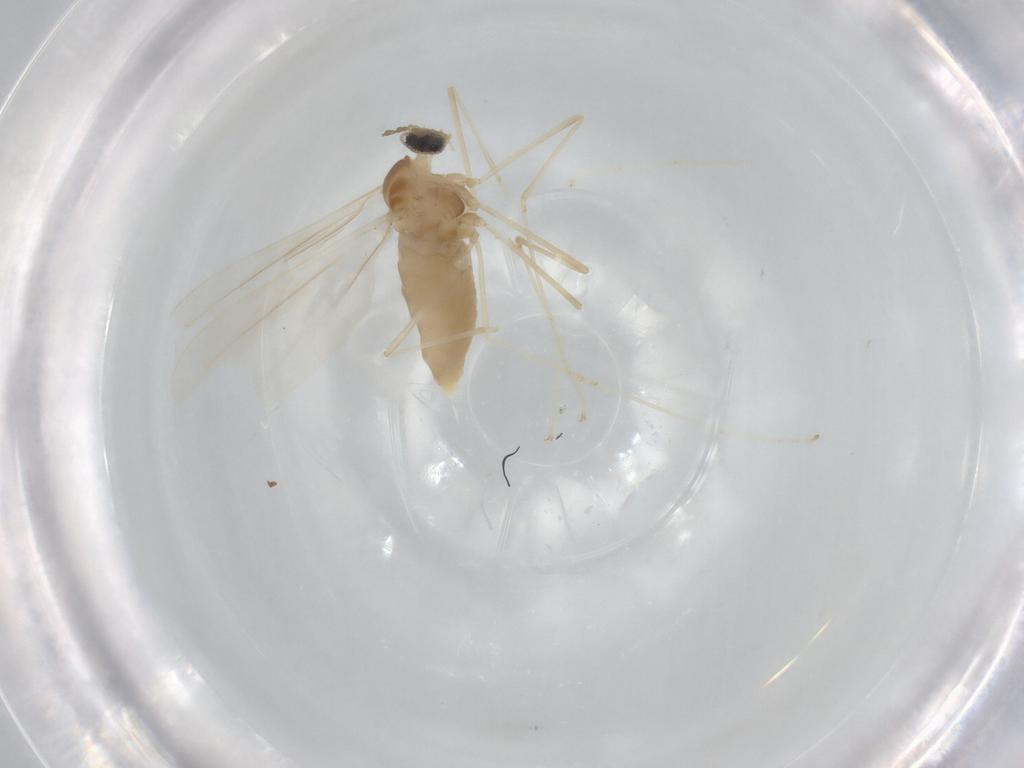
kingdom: Animalia
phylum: Arthropoda
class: Insecta
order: Diptera
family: Cecidomyiidae
